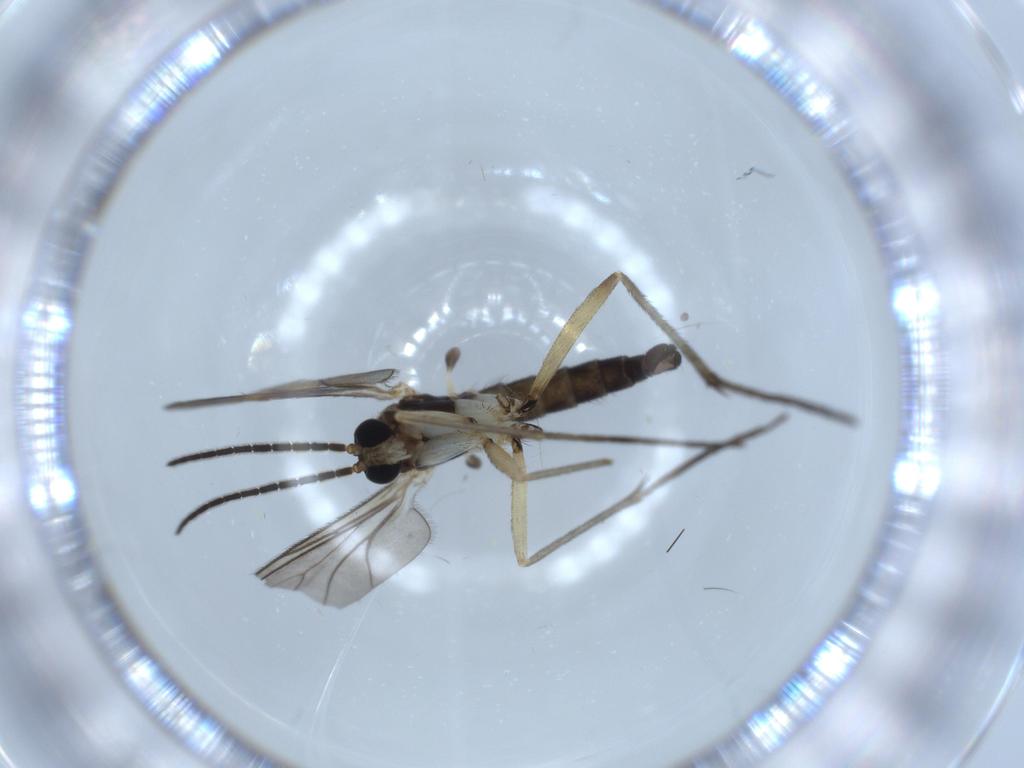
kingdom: Animalia
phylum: Arthropoda
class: Insecta
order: Diptera
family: Sciaridae
